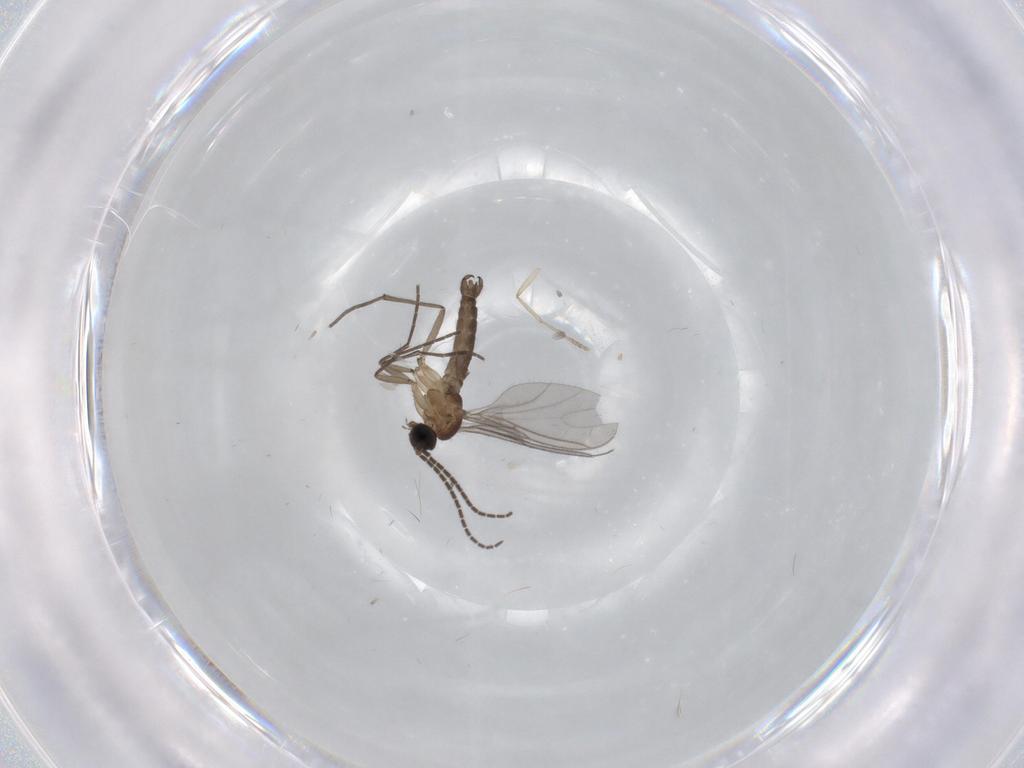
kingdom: Animalia
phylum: Arthropoda
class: Insecta
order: Diptera
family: Sciaridae
